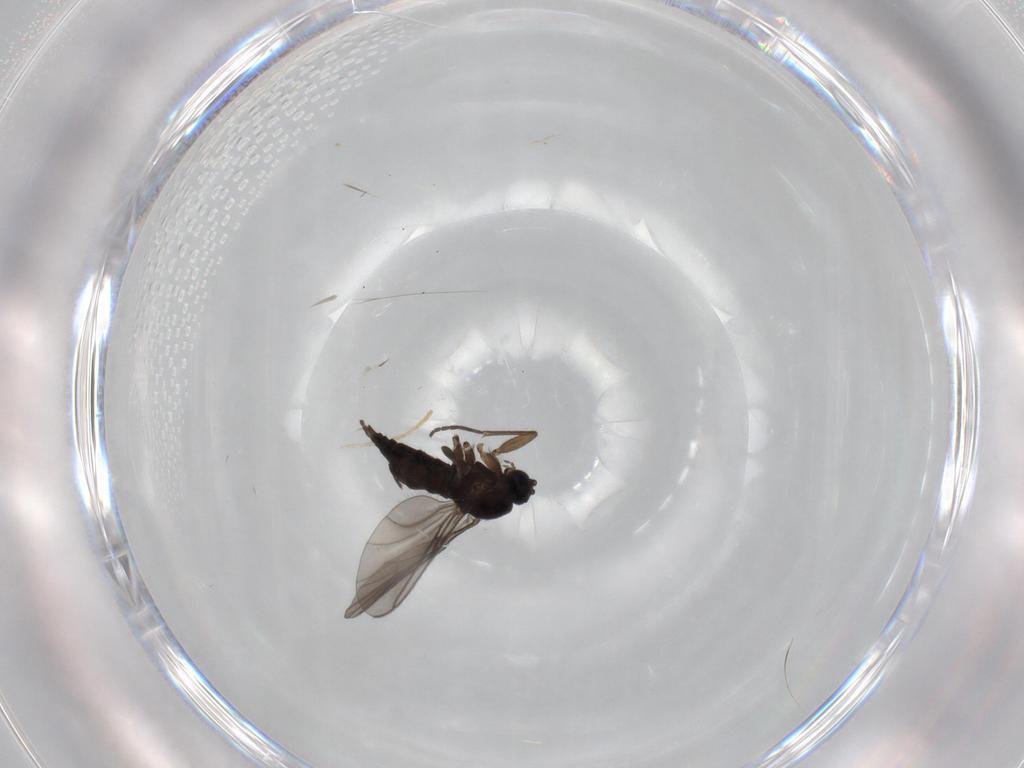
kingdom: Animalia
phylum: Arthropoda
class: Insecta
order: Diptera
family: Sciaridae
